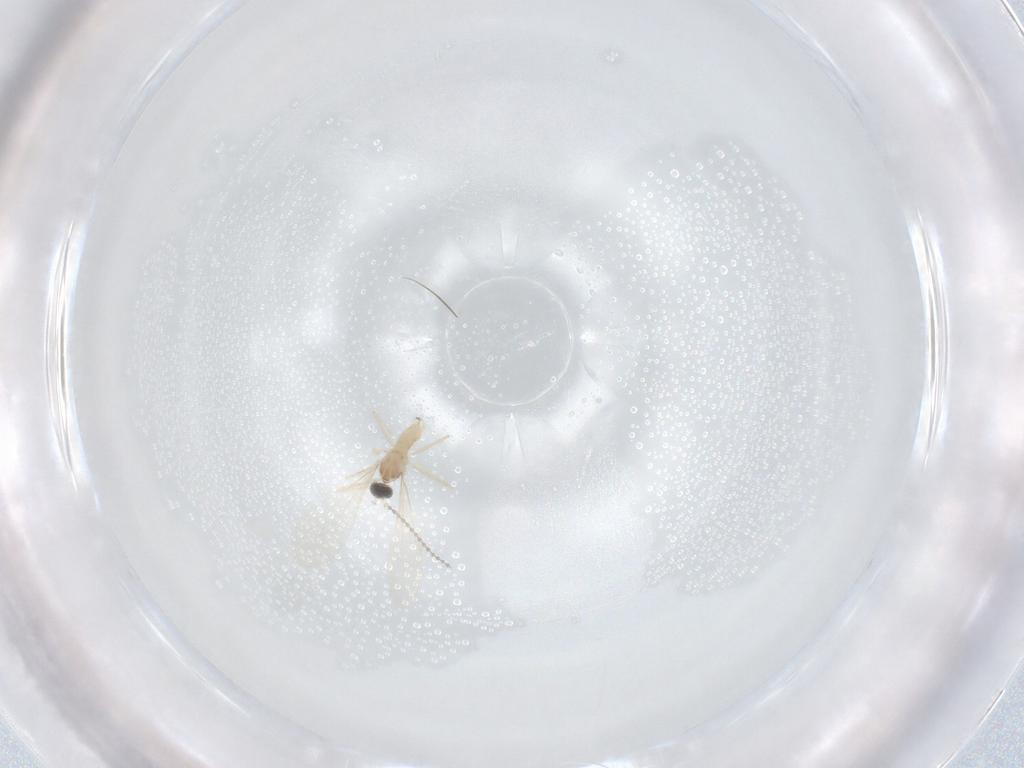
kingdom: Animalia
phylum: Arthropoda
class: Insecta
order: Diptera
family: Cecidomyiidae
